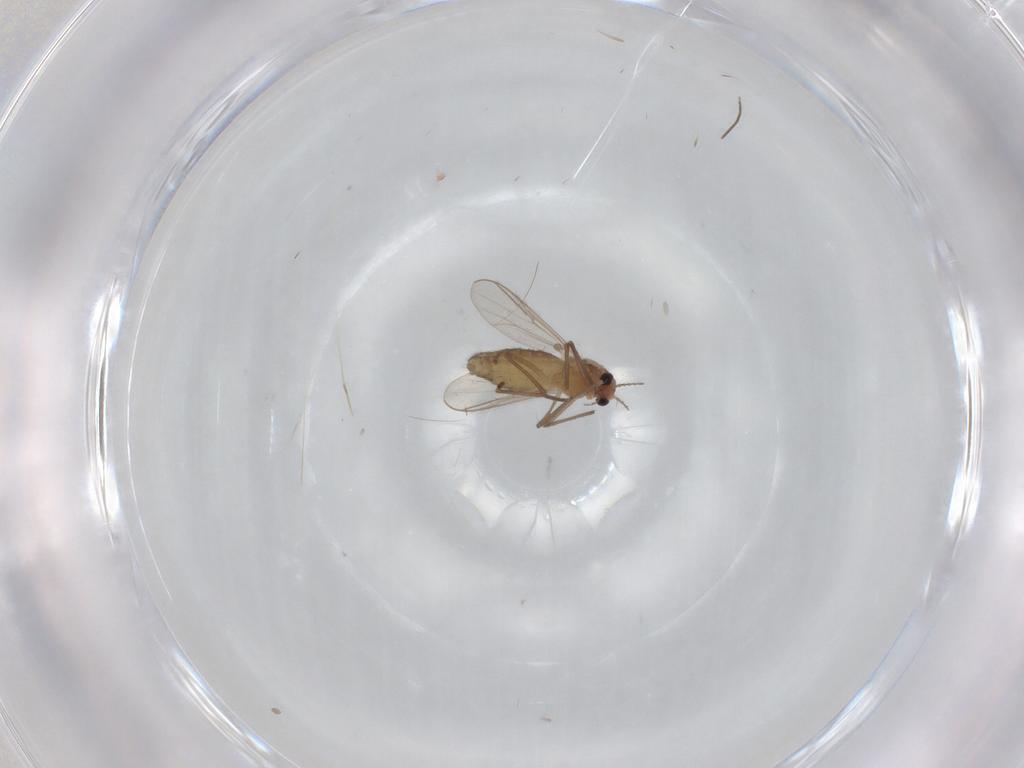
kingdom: Animalia
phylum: Arthropoda
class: Insecta
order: Diptera
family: Chironomidae
